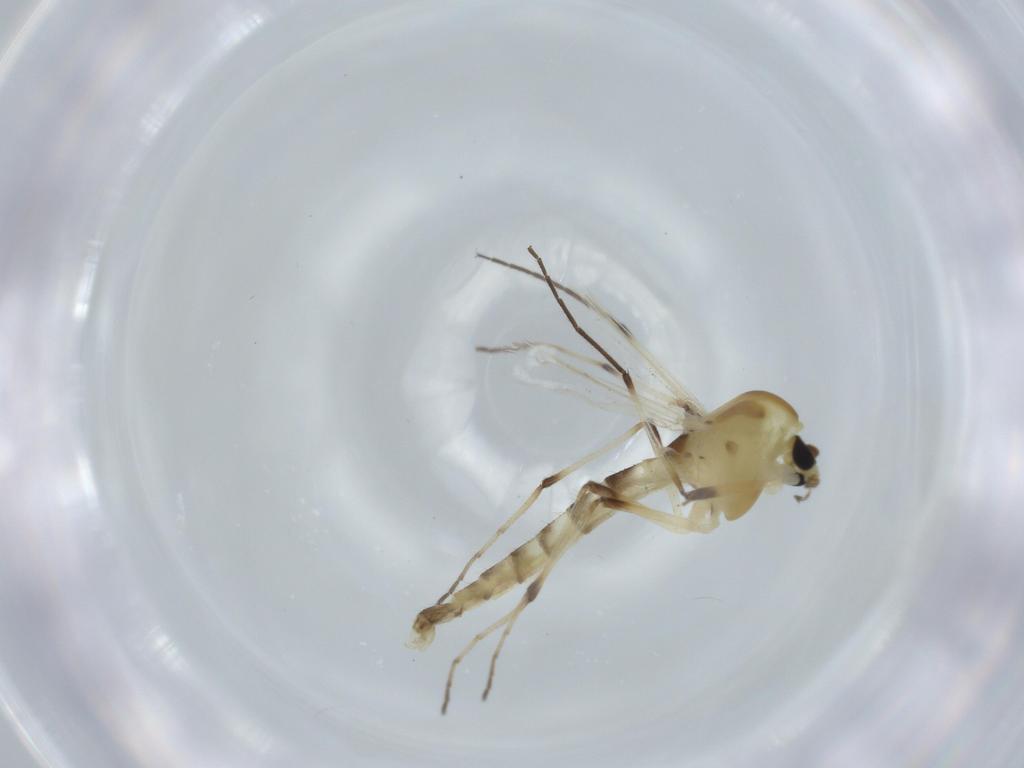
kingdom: Animalia
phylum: Arthropoda
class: Insecta
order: Diptera
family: Chironomidae
